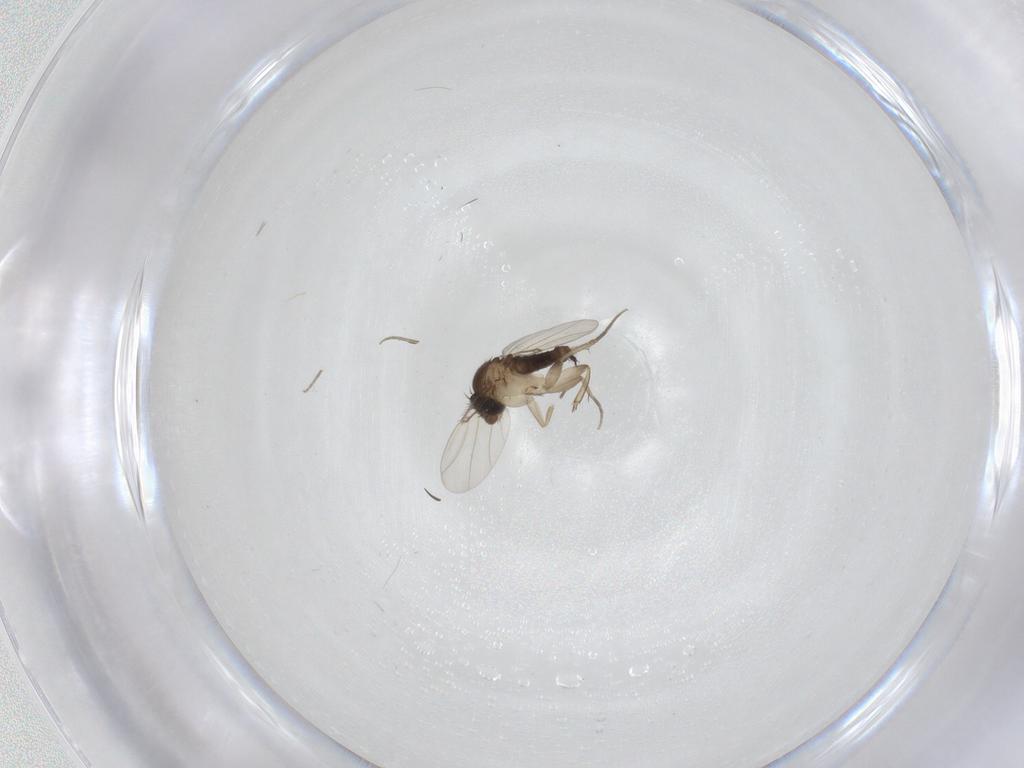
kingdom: Animalia
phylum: Arthropoda
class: Insecta
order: Diptera
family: Phoridae
